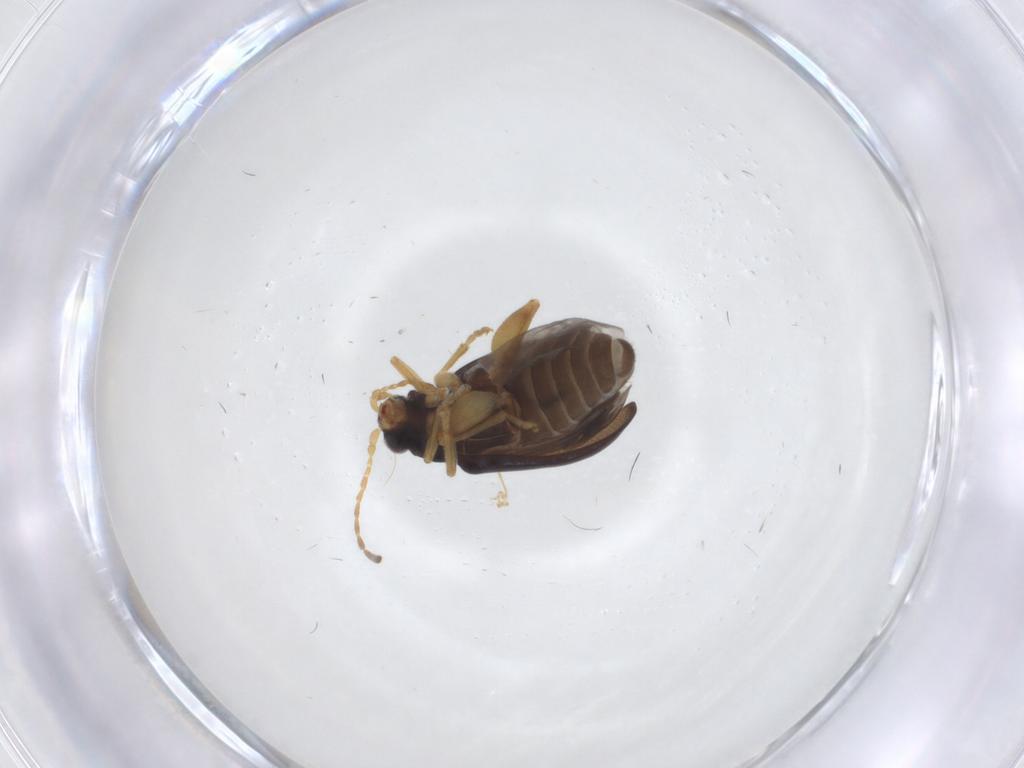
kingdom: Animalia
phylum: Arthropoda
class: Insecta
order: Coleoptera
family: Chrysomelidae
